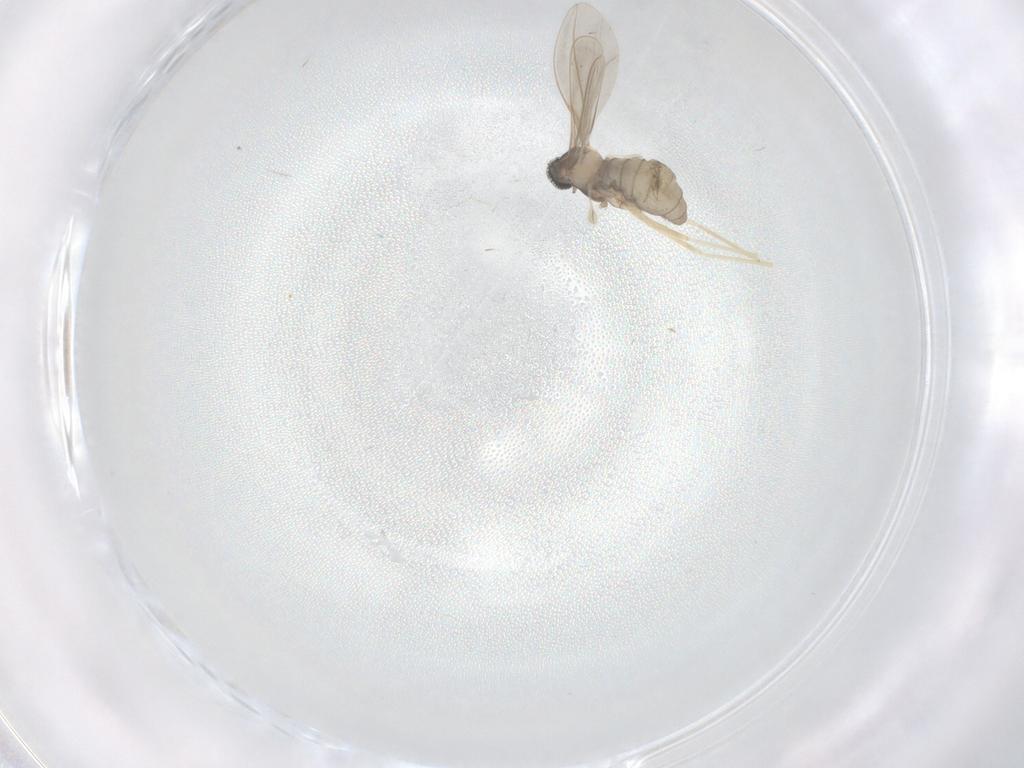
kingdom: Animalia
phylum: Arthropoda
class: Insecta
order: Diptera
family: Cecidomyiidae
